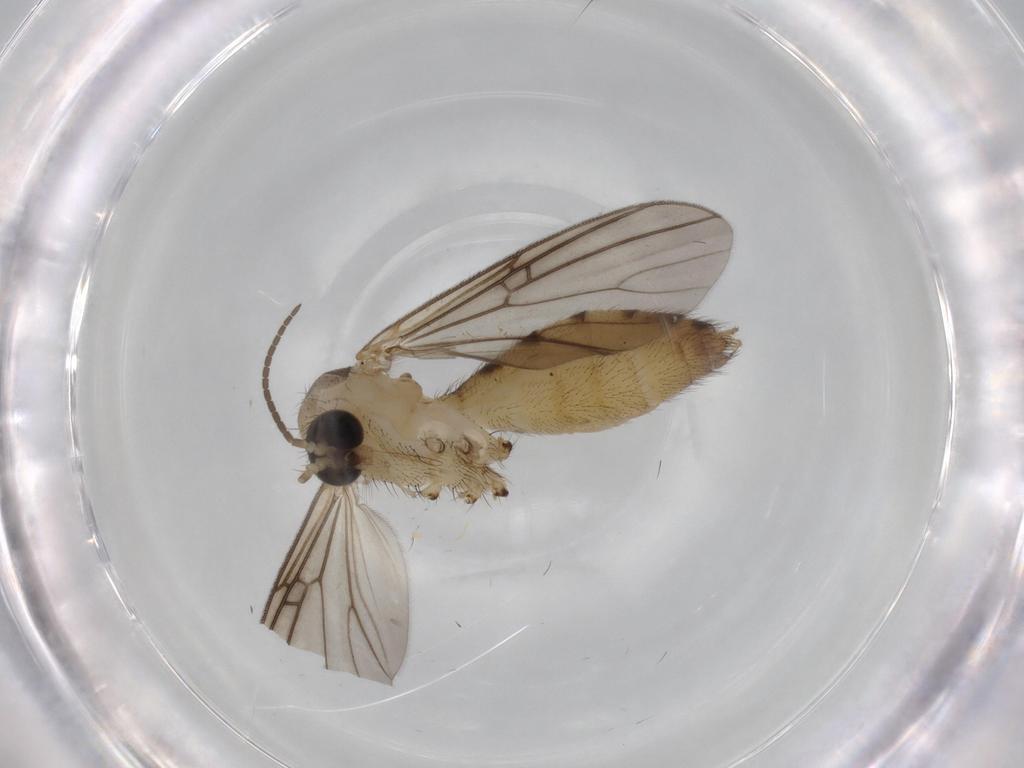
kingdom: Animalia
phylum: Arthropoda
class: Insecta
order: Diptera
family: Mycetophilidae
